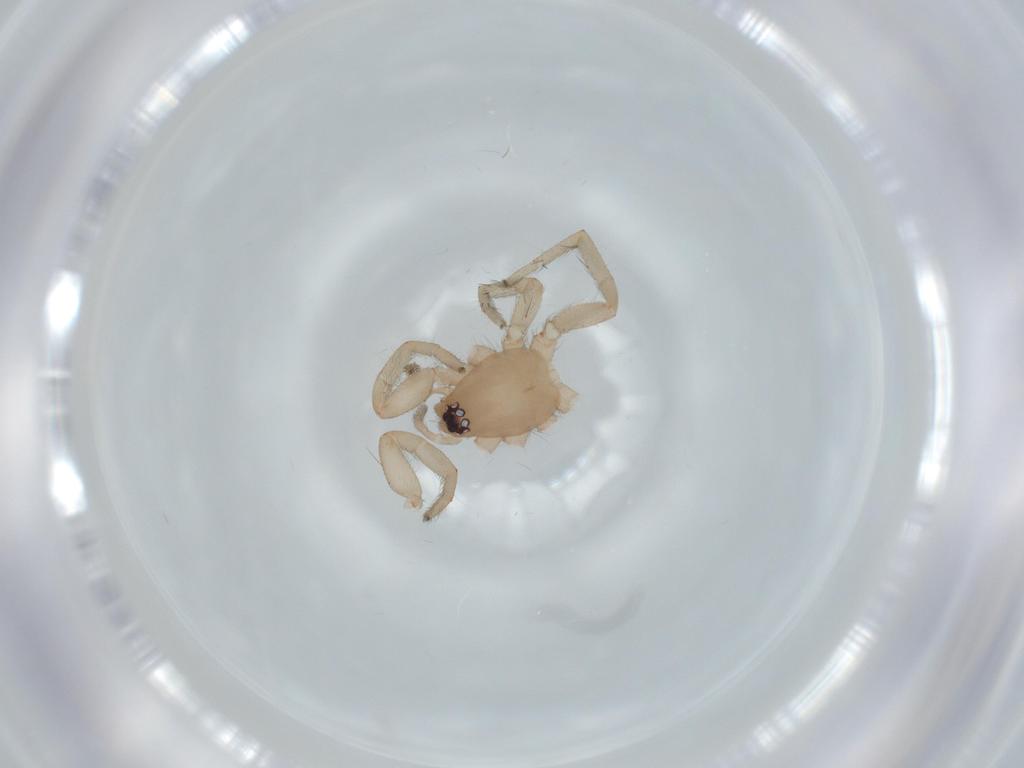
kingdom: Animalia
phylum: Arthropoda
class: Arachnida
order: Araneae
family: Gnaphosidae
